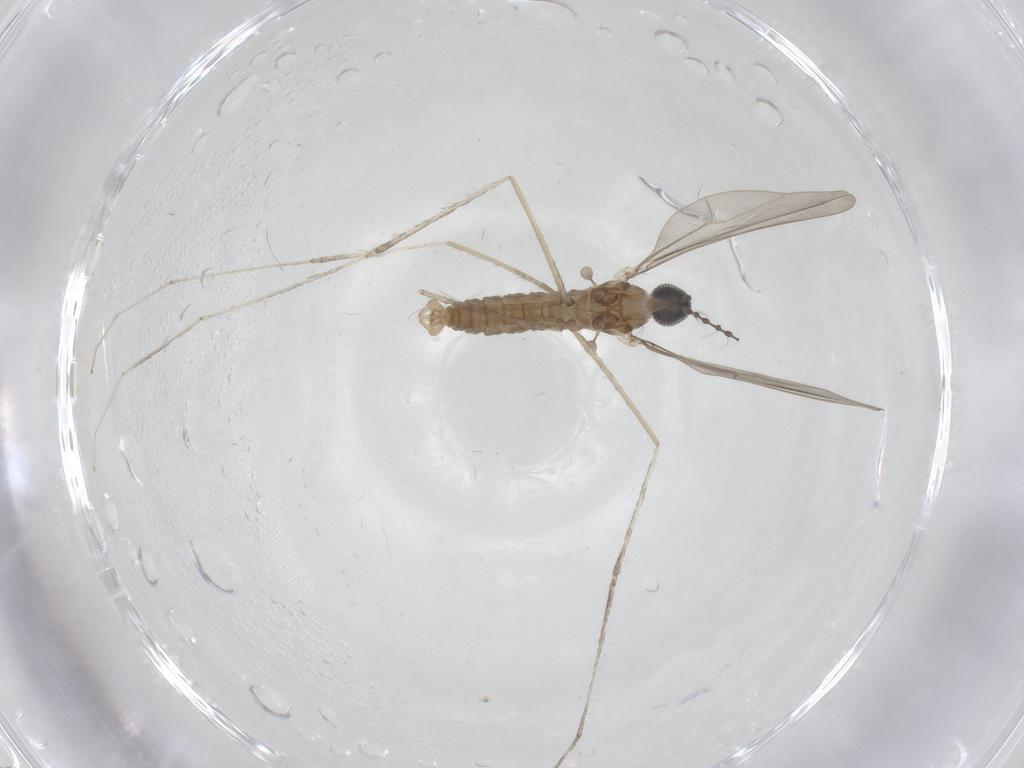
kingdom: Animalia
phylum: Arthropoda
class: Insecta
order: Diptera
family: Cecidomyiidae
